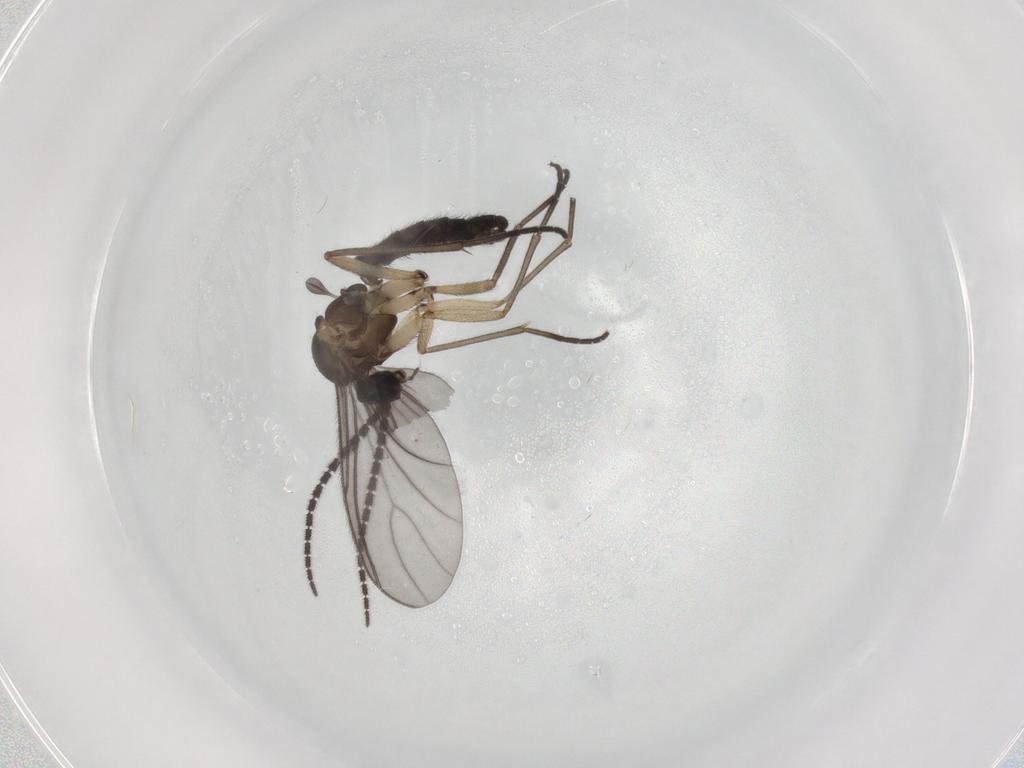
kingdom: Animalia
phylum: Arthropoda
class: Insecta
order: Diptera
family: Sciaridae
